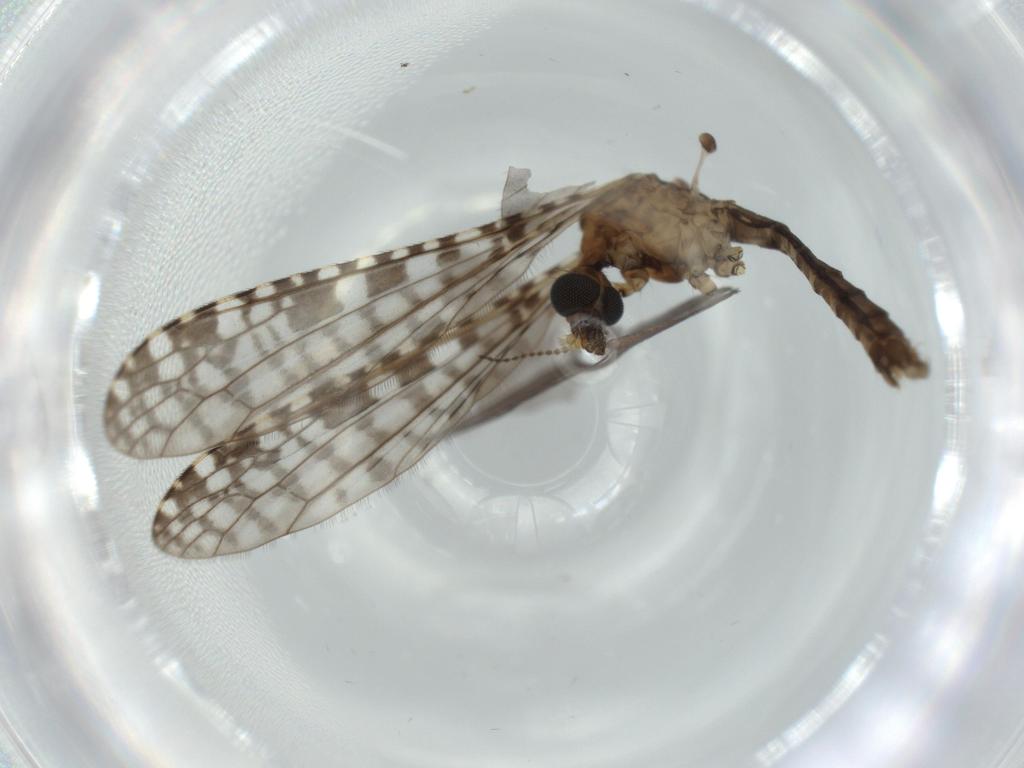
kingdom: Animalia
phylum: Arthropoda
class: Insecta
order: Diptera
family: Sciaridae
